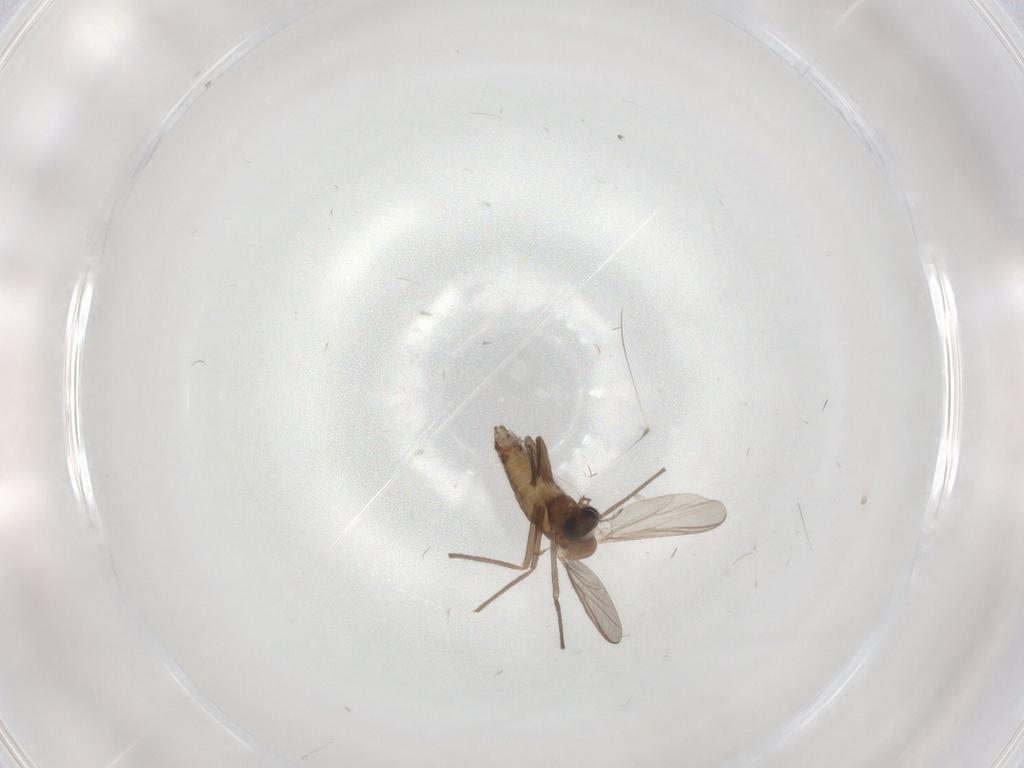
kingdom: Animalia
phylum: Arthropoda
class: Insecta
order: Diptera
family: Chironomidae
